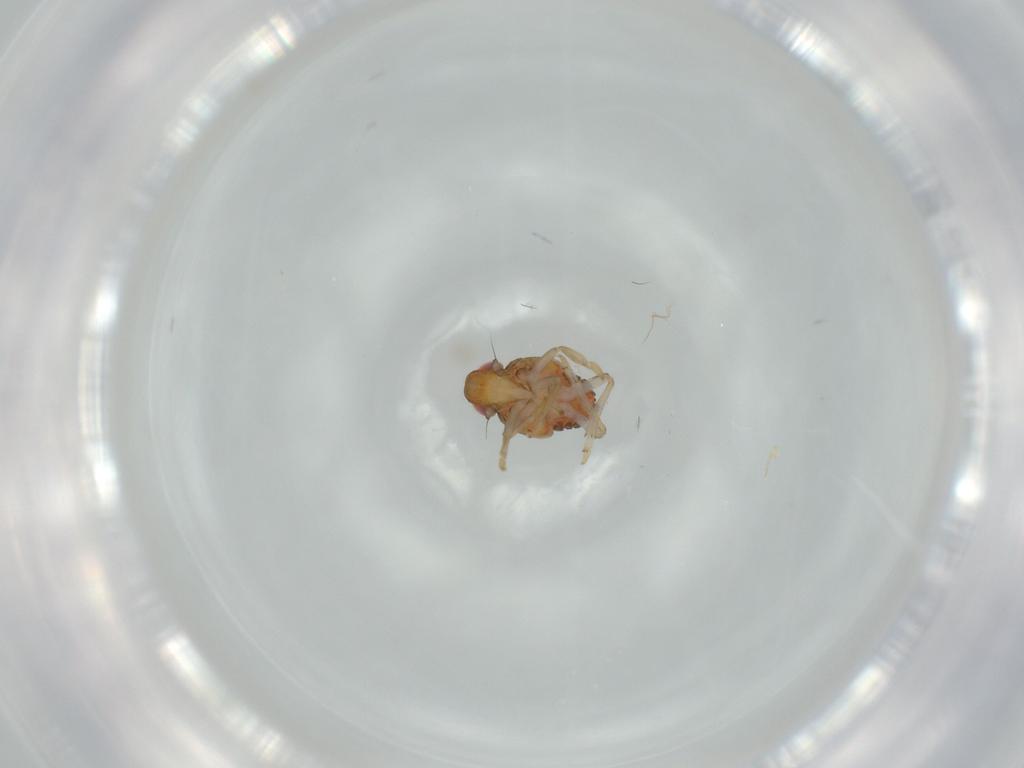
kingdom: Animalia
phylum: Arthropoda
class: Insecta
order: Hemiptera
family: Issidae
